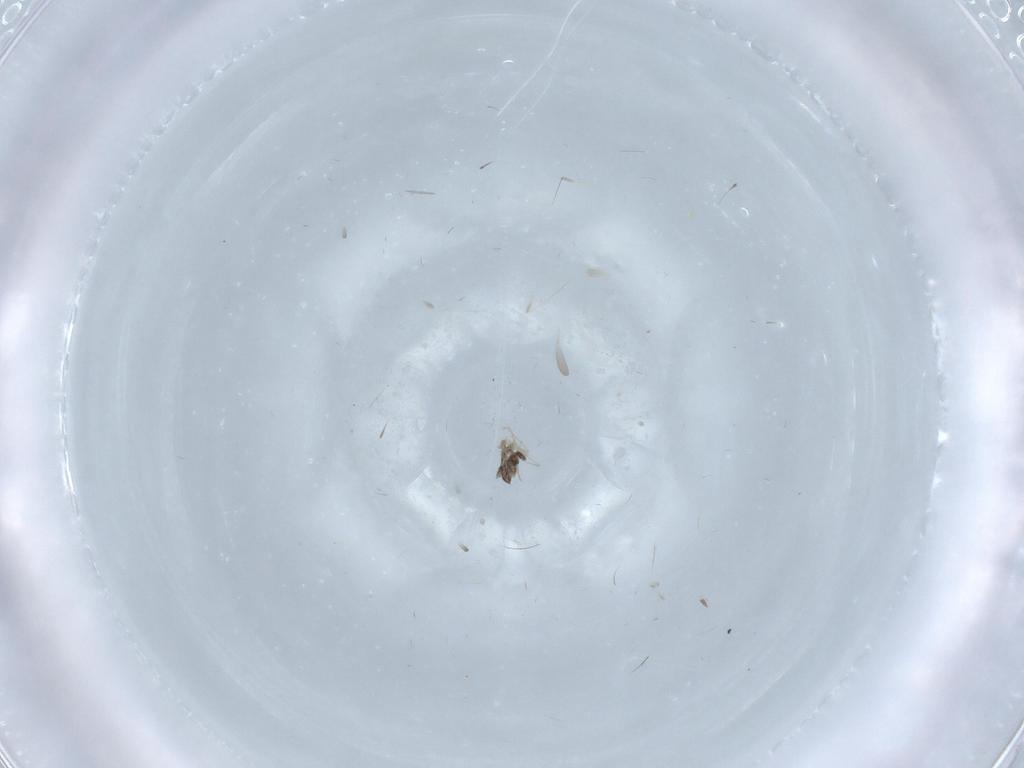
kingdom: Animalia
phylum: Arthropoda
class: Insecta
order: Diptera
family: Cecidomyiidae
